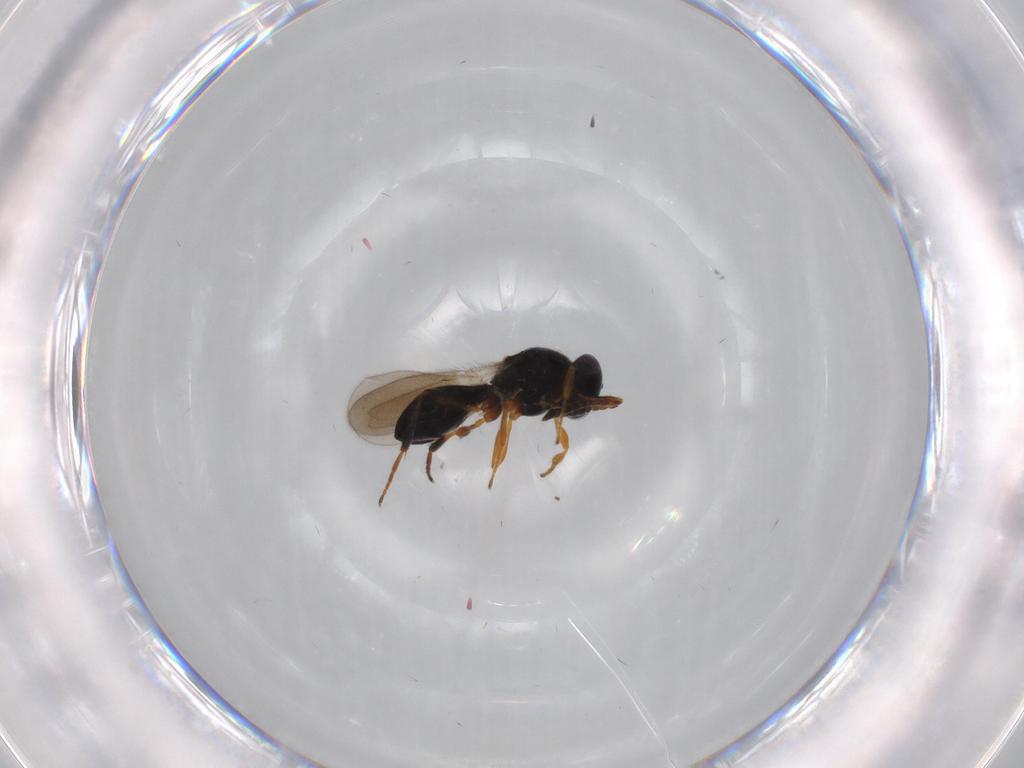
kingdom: Animalia
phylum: Arthropoda
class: Insecta
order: Hymenoptera
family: Platygastridae
